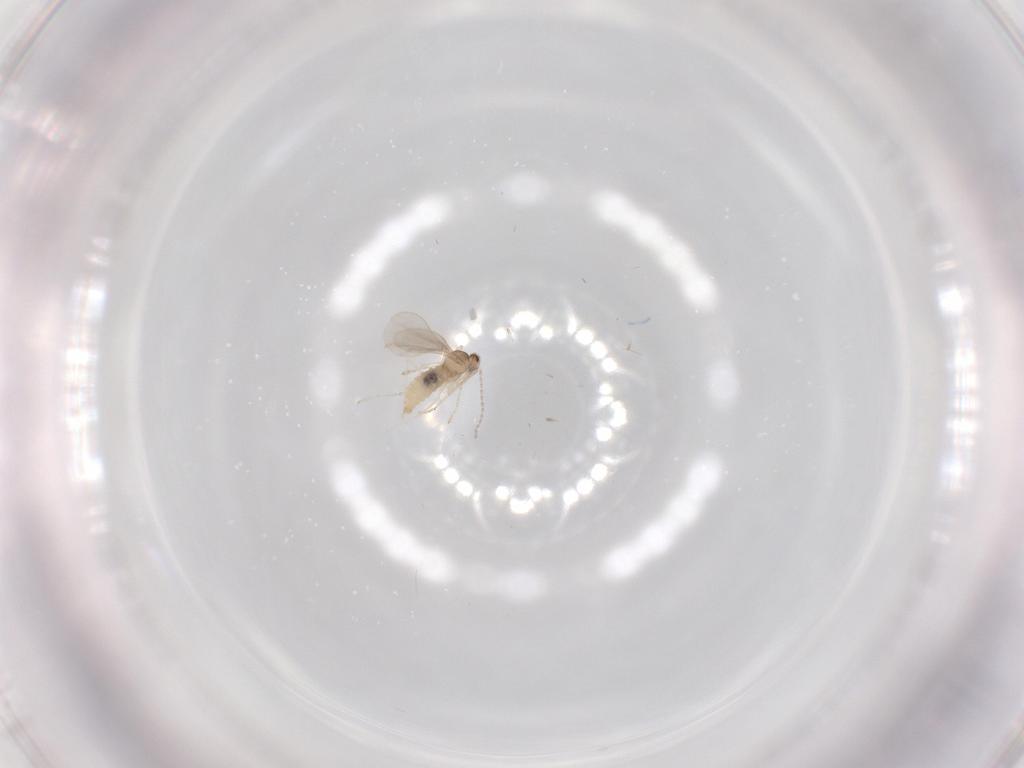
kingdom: Animalia
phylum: Arthropoda
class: Insecta
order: Diptera
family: Cecidomyiidae
